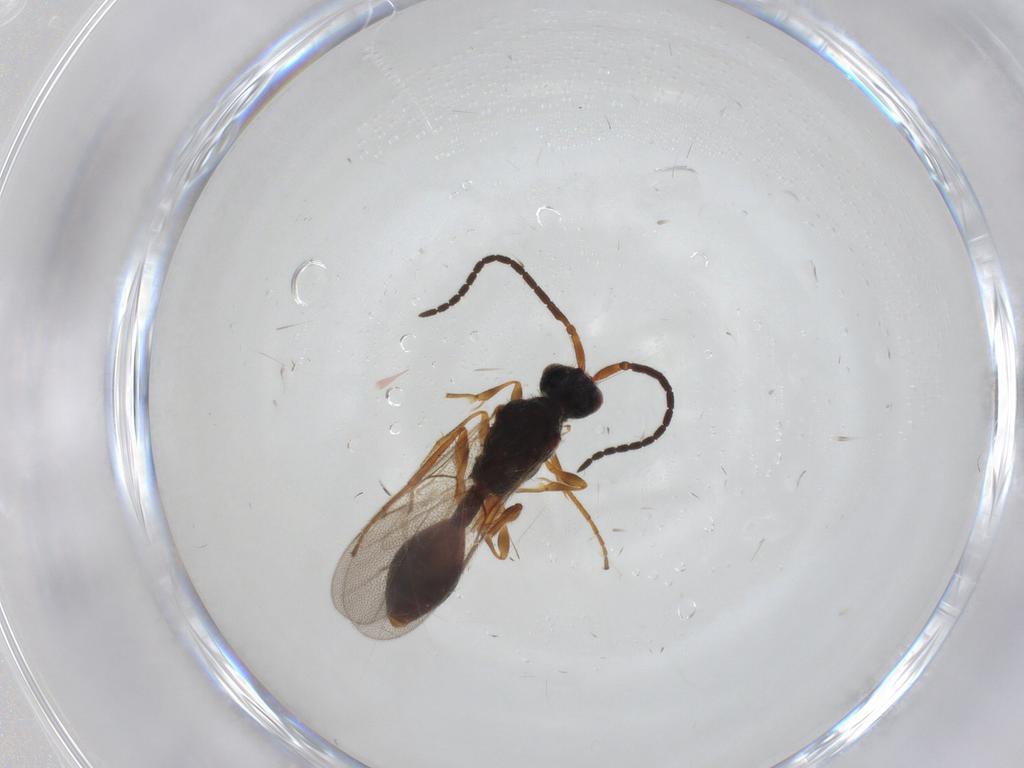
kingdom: Animalia
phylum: Arthropoda
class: Insecta
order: Hymenoptera
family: Diapriidae
